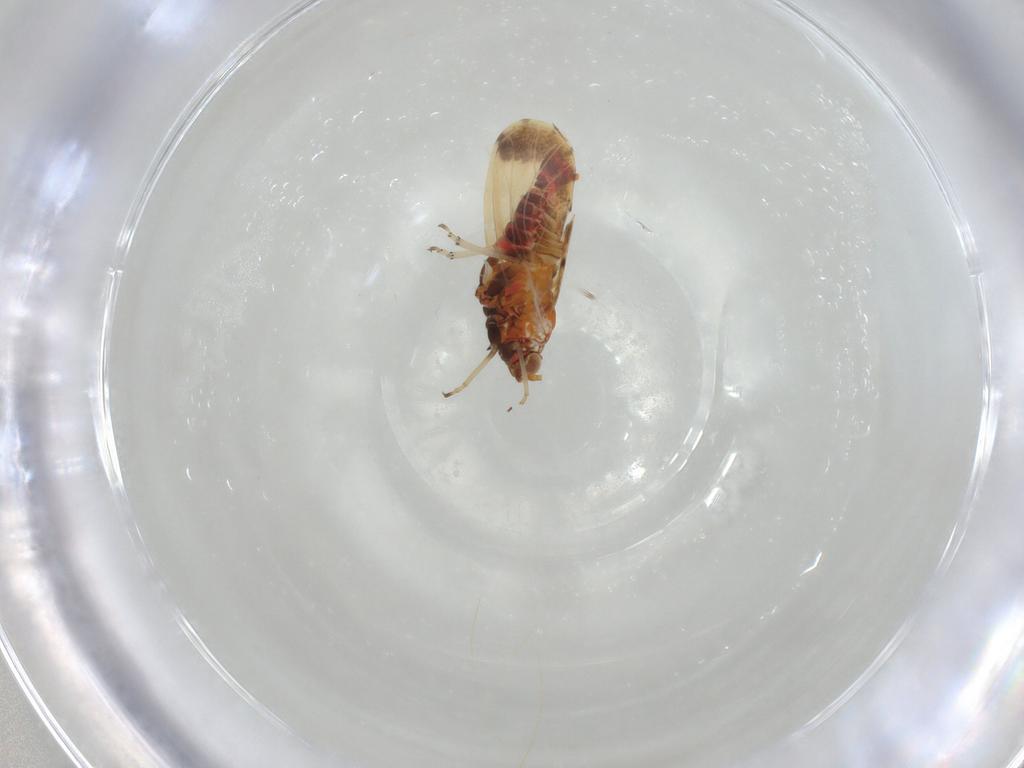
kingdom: Animalia
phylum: Arthropoda
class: Insecta
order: Hemiptera
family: Psyllidae
